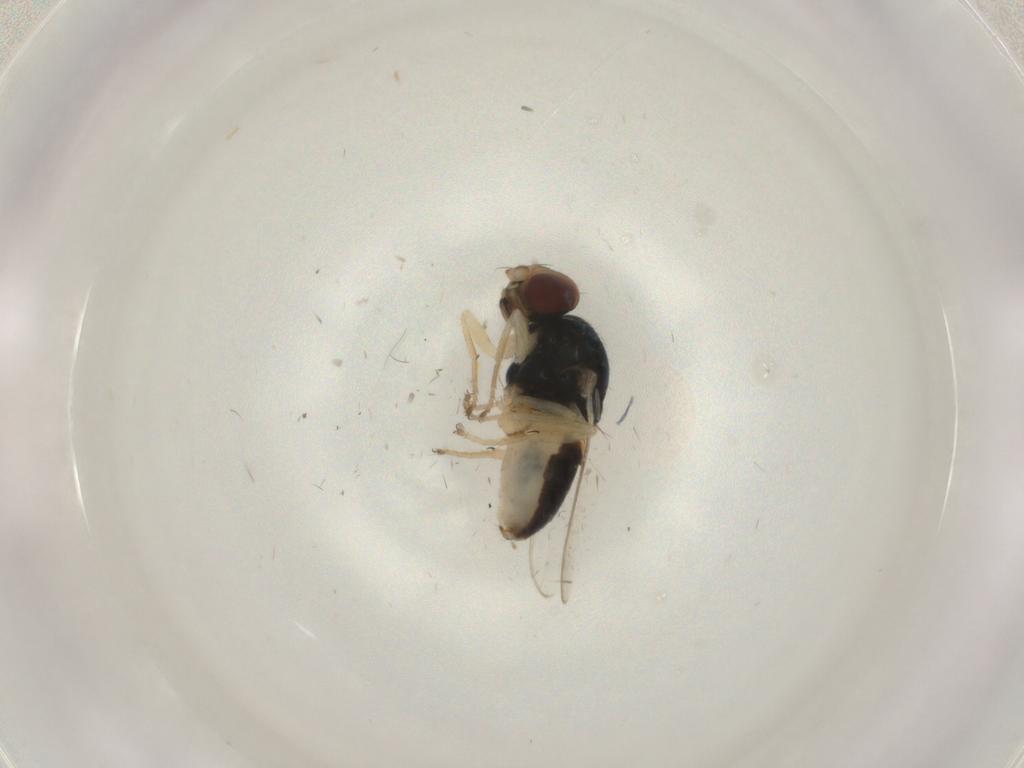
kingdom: Animalia
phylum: Arthropoda
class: Insecta
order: Diptera
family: Chloropidae
